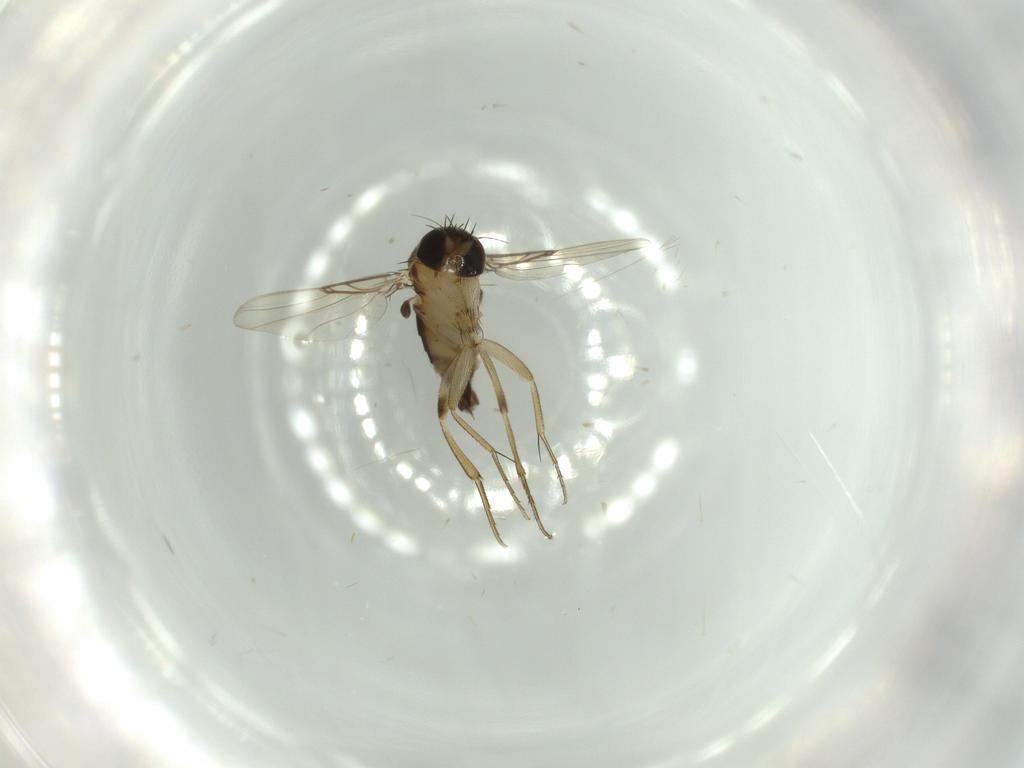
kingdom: Animalia
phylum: Arthropoda
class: Insecta
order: Diptera
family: Phoridae
